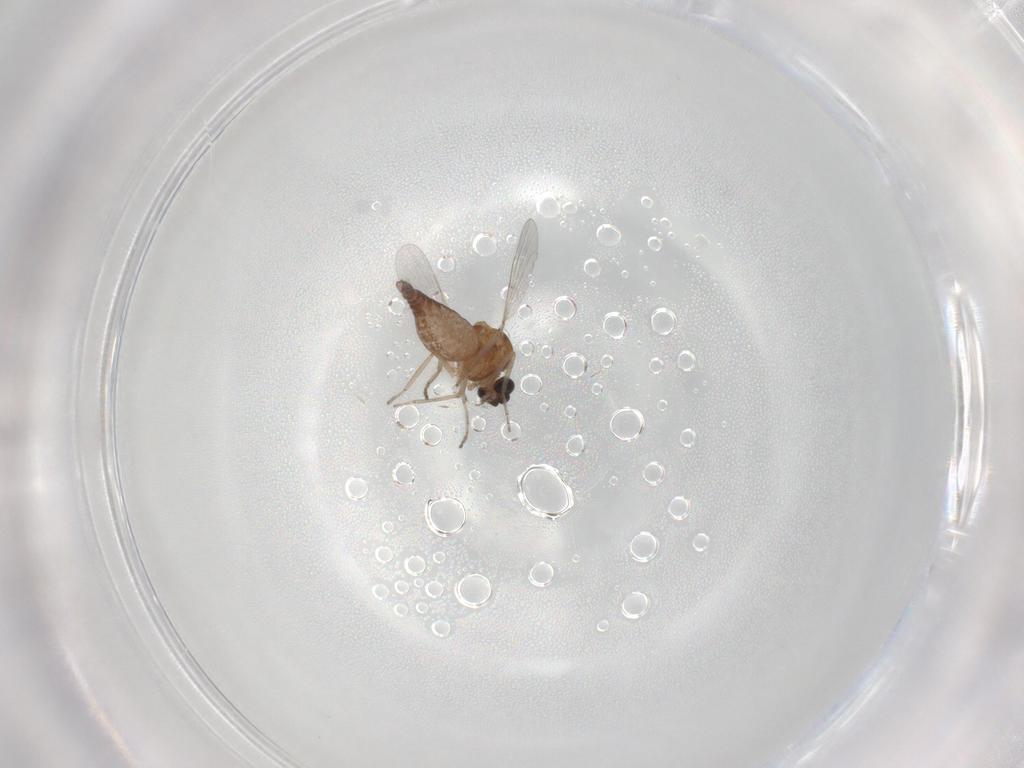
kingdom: Animalia
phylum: Arthropoda
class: Insecta
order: Diptera
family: Ceratopogonidae
